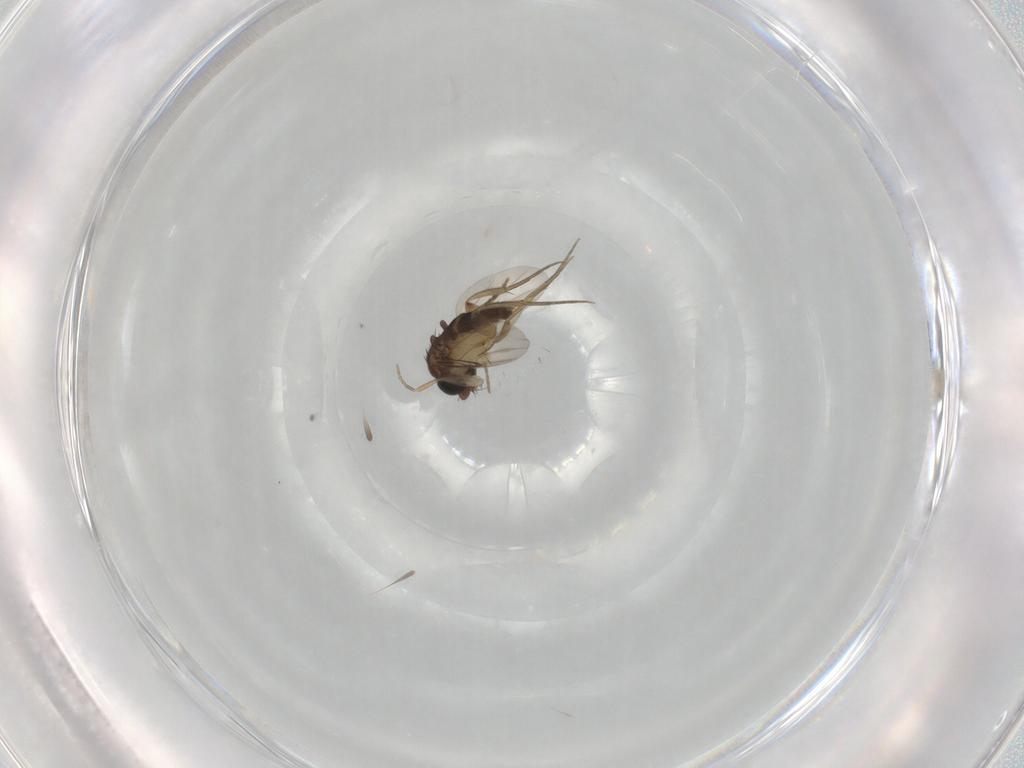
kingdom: Animalia
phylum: Arthropoda
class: Insecta
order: Diptera
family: Phoridae
